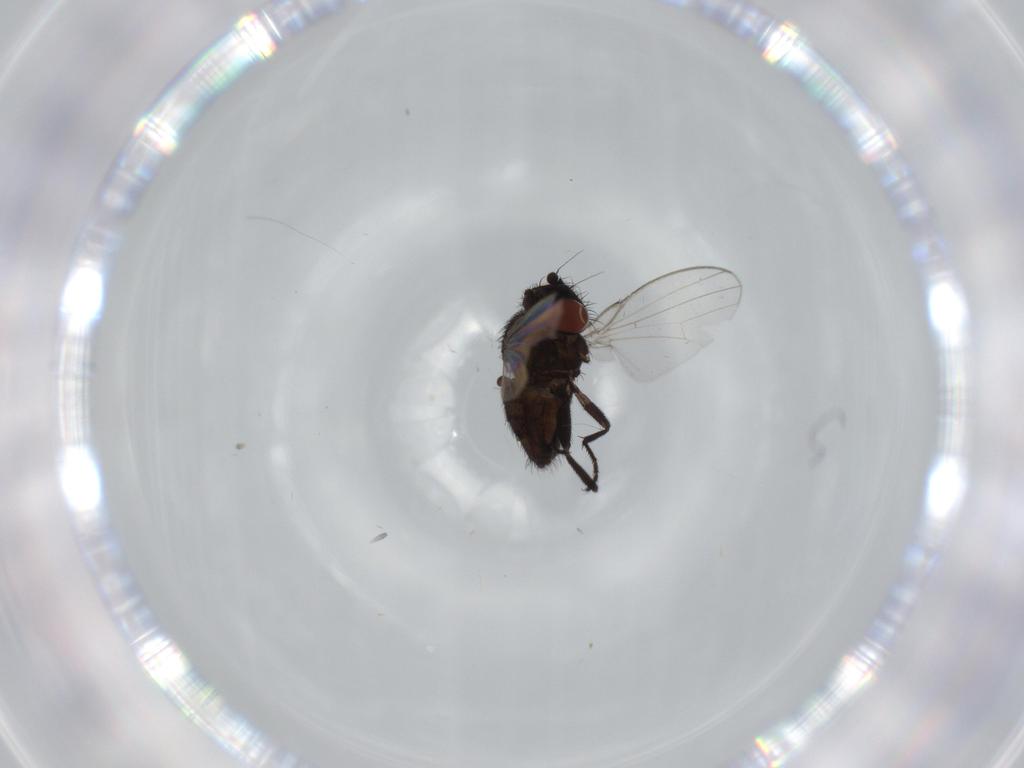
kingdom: Animalia
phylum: Arthropoda
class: Insecta
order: Diptera
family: Milichiidae
